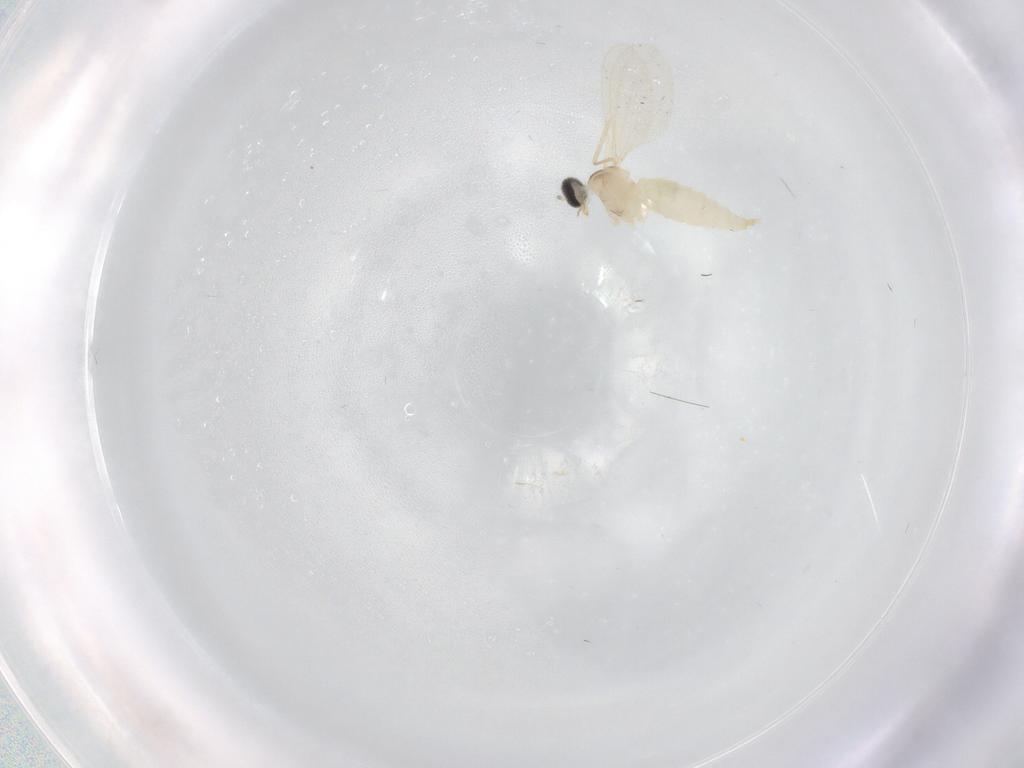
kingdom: Animalia
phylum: Arthropoda
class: Insecta
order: Diptera
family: Cecidomyiidae
